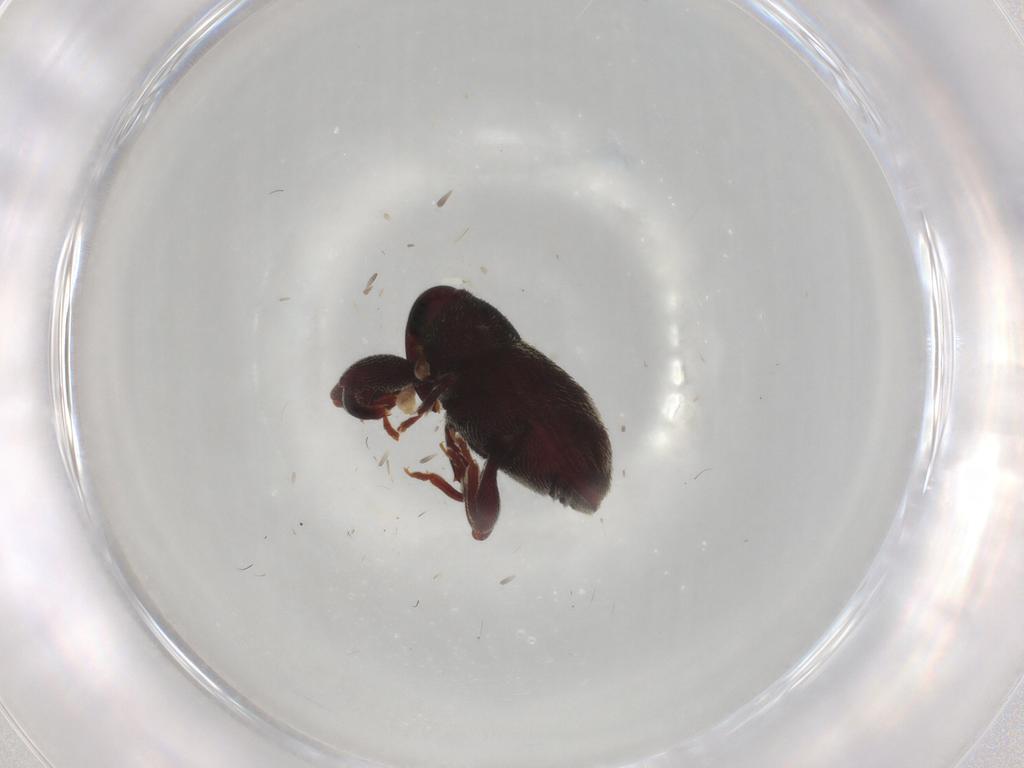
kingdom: Animalia
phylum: Arthropoda
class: Insecta
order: Coleoptera
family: Curculionidae
